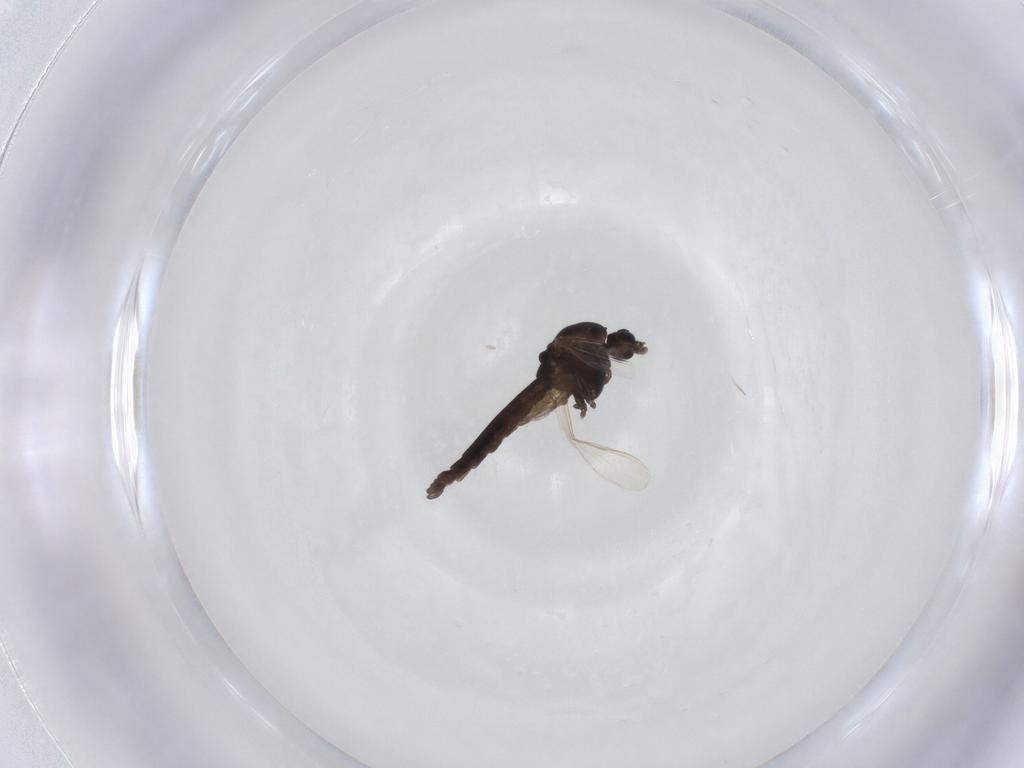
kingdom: Animalia
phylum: Arthropoda
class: Insecta
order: Diptera
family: Chironomidae
